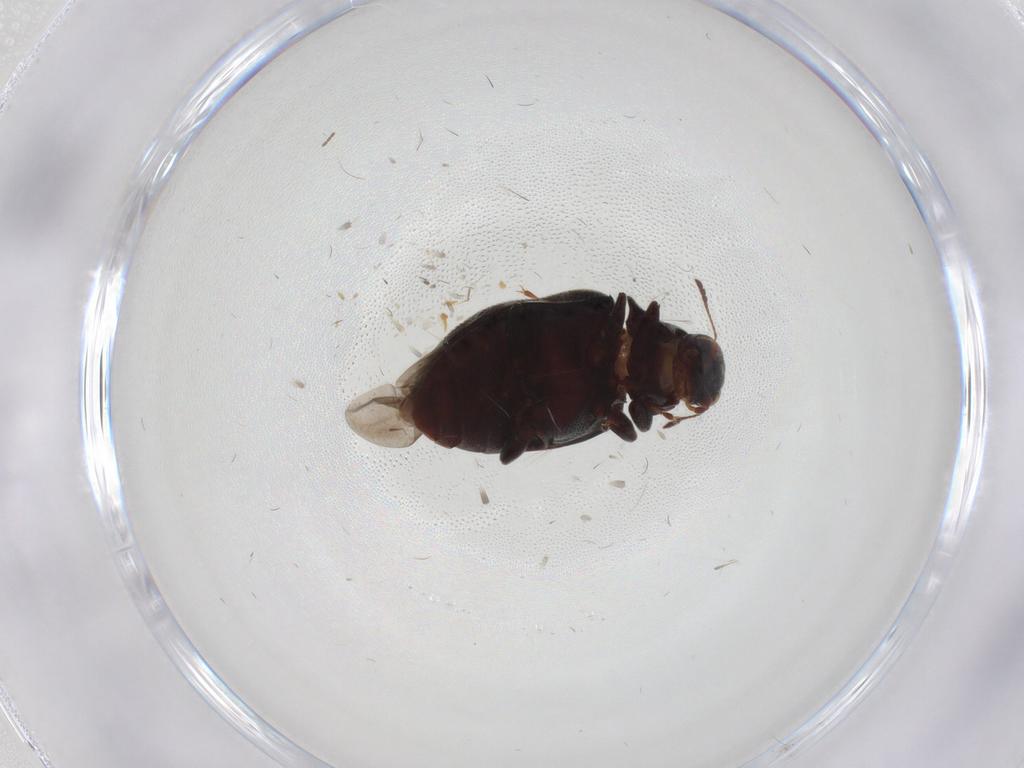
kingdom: Animalia
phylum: Arthropoda
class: Insecta
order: Coleoptera
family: Limnichidae
